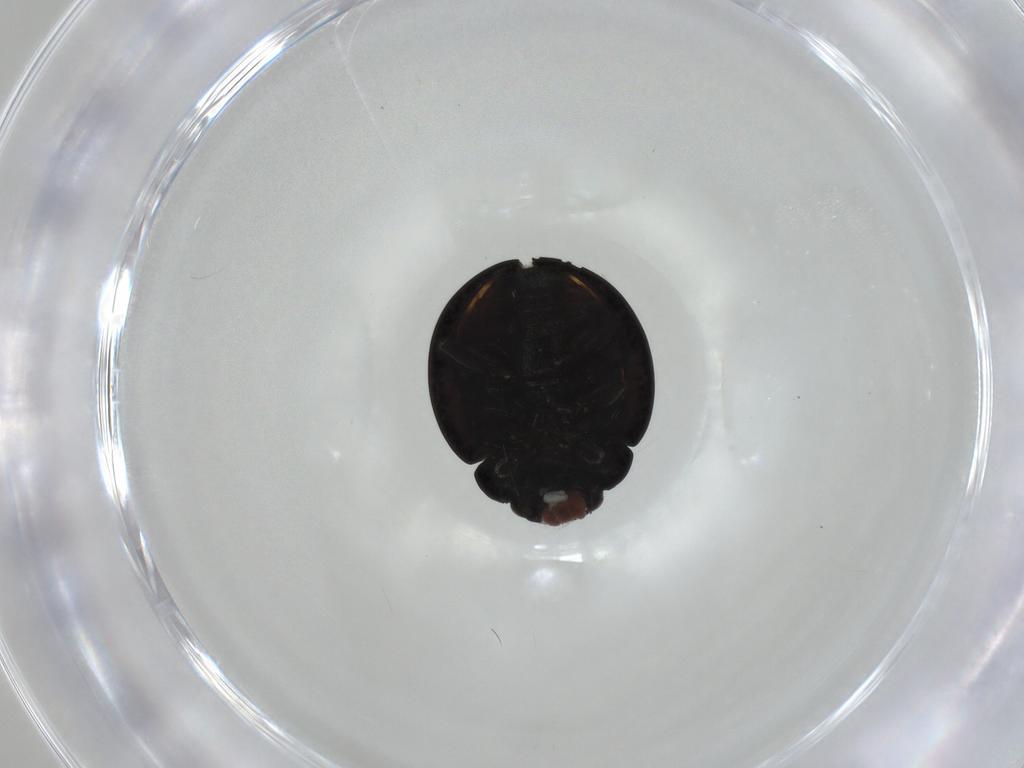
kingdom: Animalia
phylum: Arthropoda
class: Insecta
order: Coleoptera
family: Coccinellidae
